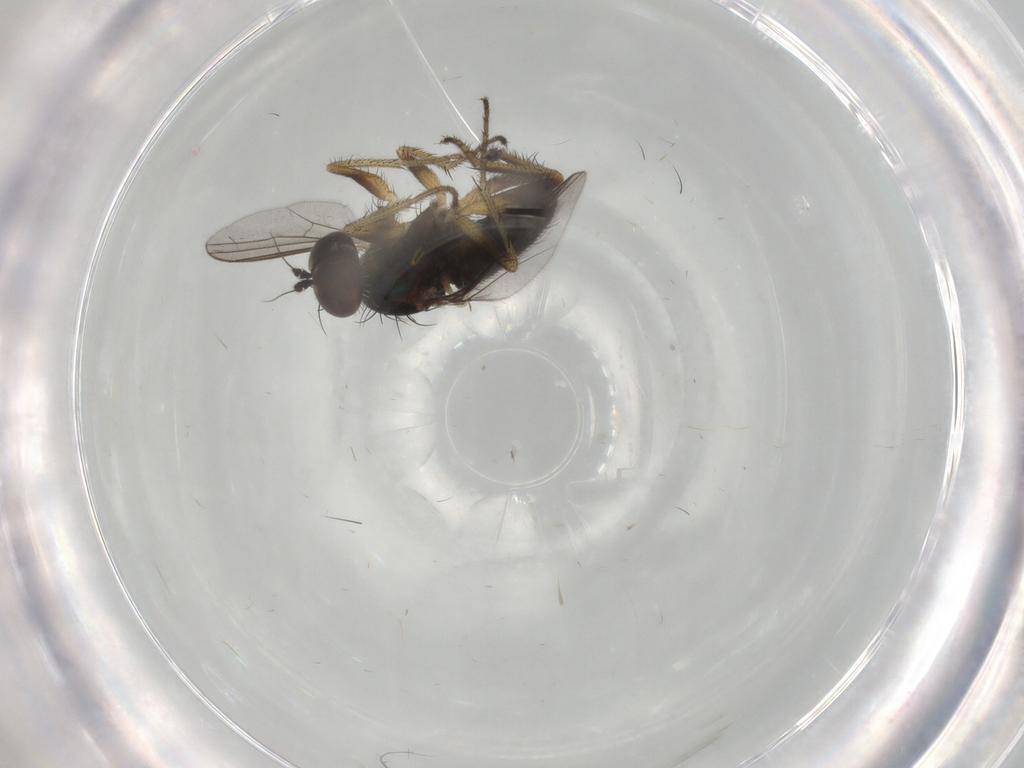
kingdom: Animalia
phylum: Arthropoda
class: Insecta
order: Diptera
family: Dolichopodidae
